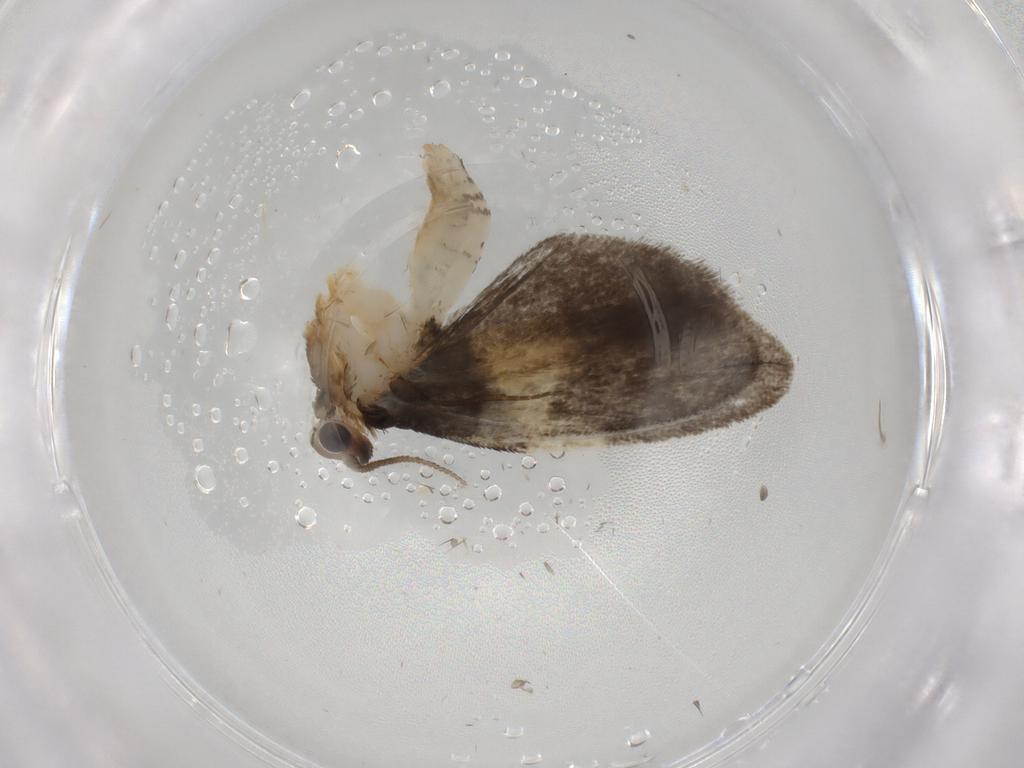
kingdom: Animalia
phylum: Arthropoda
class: Insecta
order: Lepidoptera
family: Psychidae
